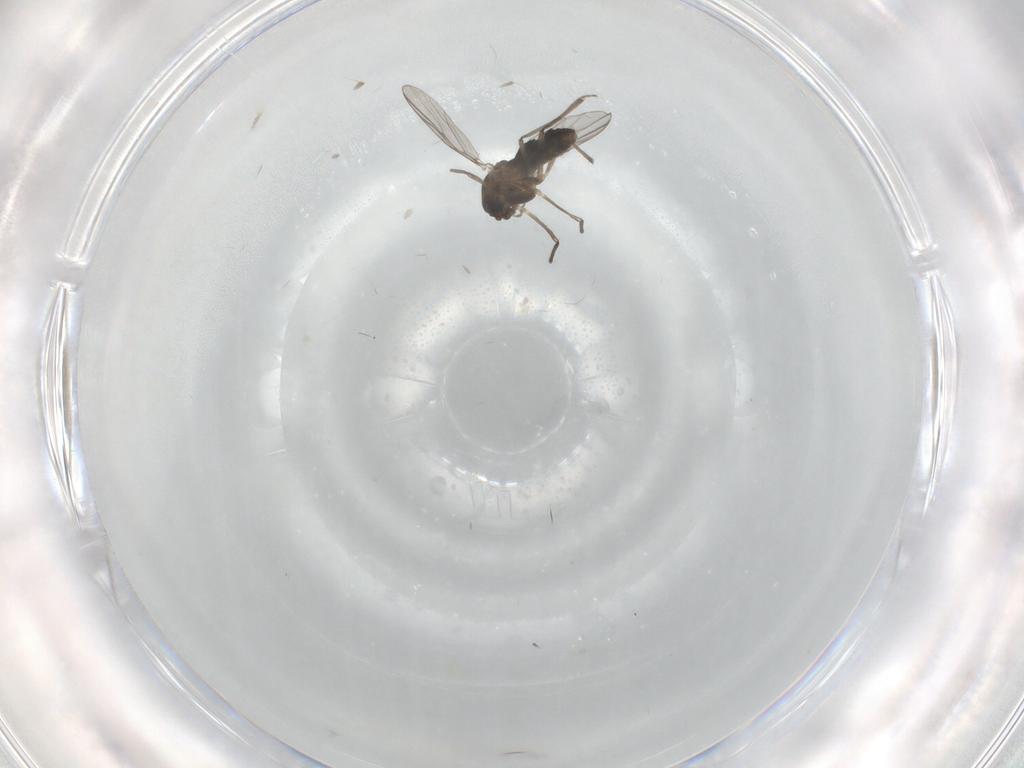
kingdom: Animalia
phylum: Arthropoda
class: Insecta
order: Diptera
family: Chironomidae
